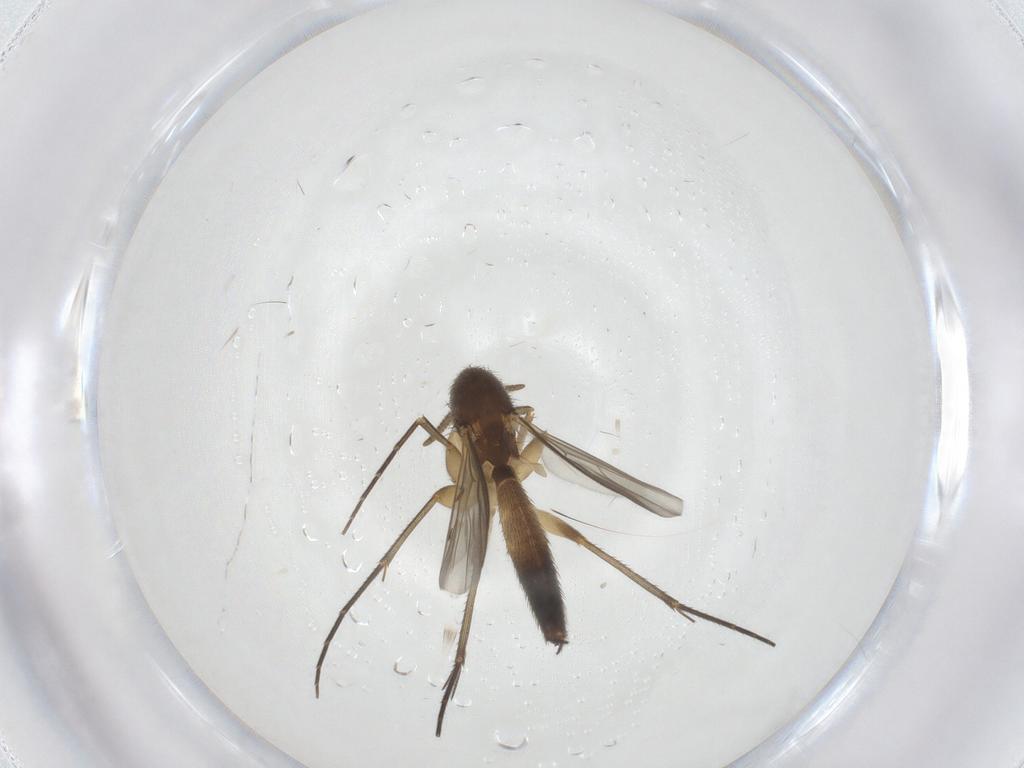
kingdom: Animalia
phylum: Arthropoda
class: Insecta
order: Diptera
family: Mycetophilidae
